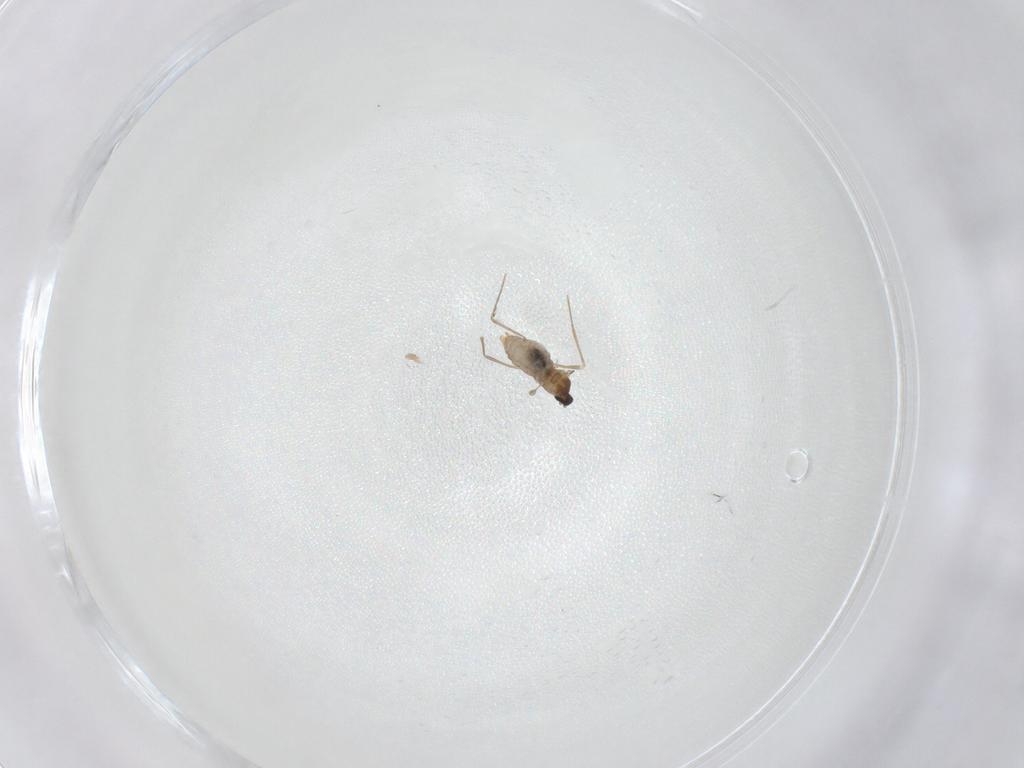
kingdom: Animalia
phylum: Arthropoda
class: Insecta
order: Diptera
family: Cecidomyiidae
